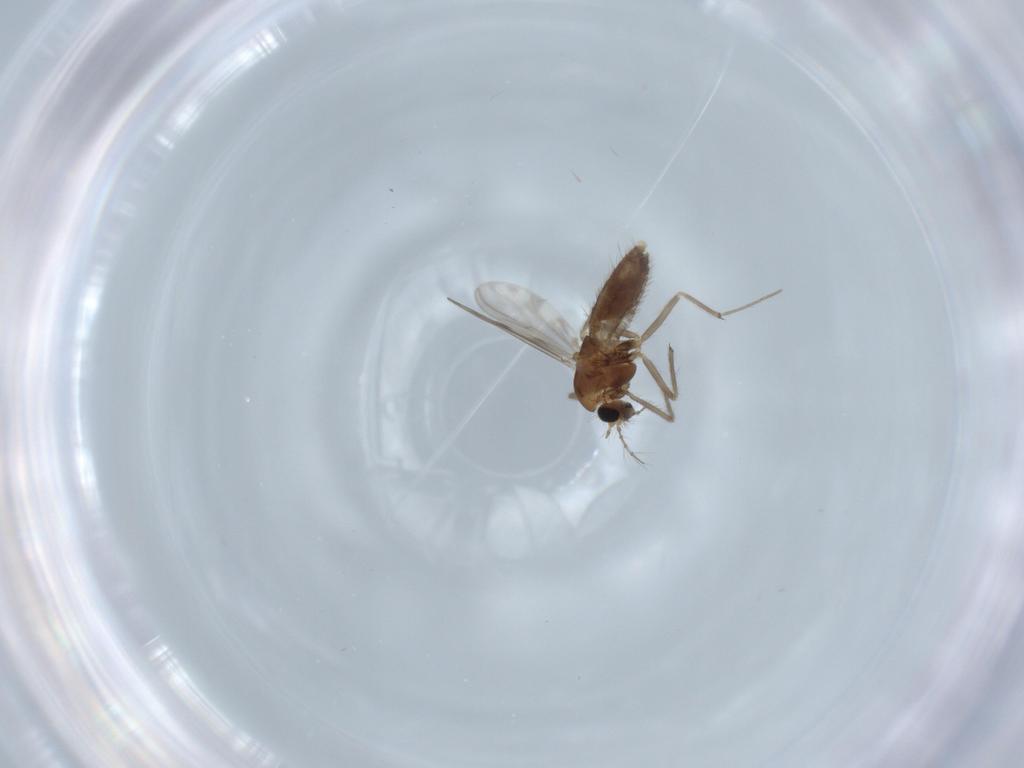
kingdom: Animalia
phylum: Arthropoda
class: Insecta
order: Diptera
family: Chironomidae
